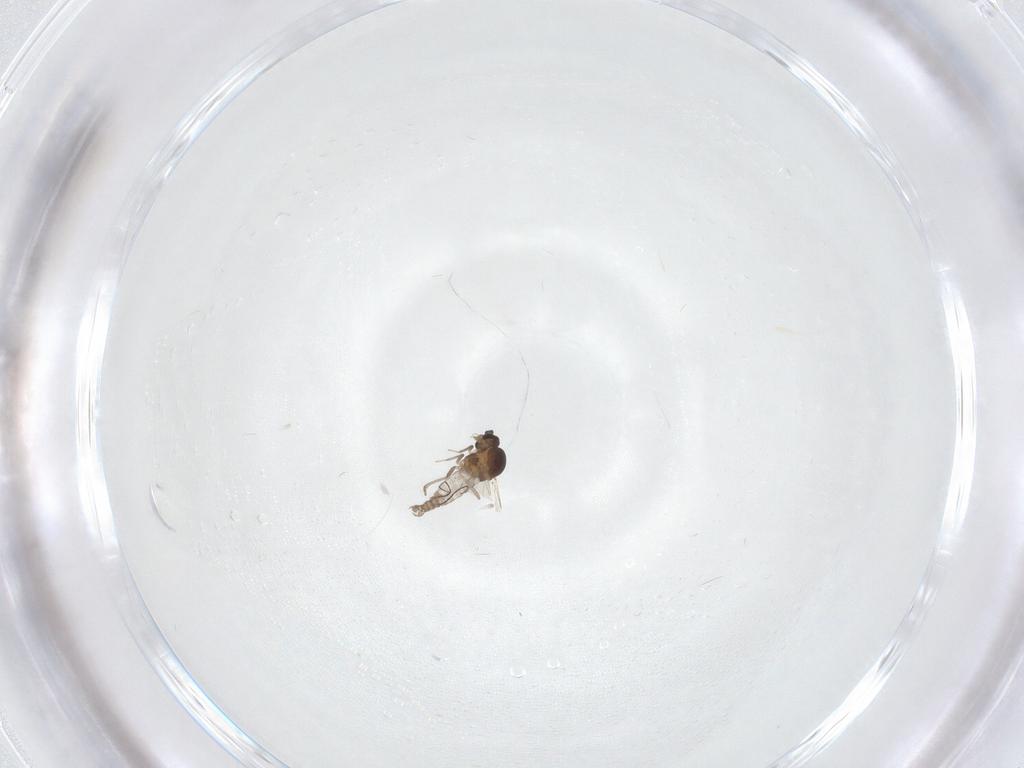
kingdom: Animalia
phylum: Arthropoda
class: Insecta
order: Diptera
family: Ceratopogonidae
